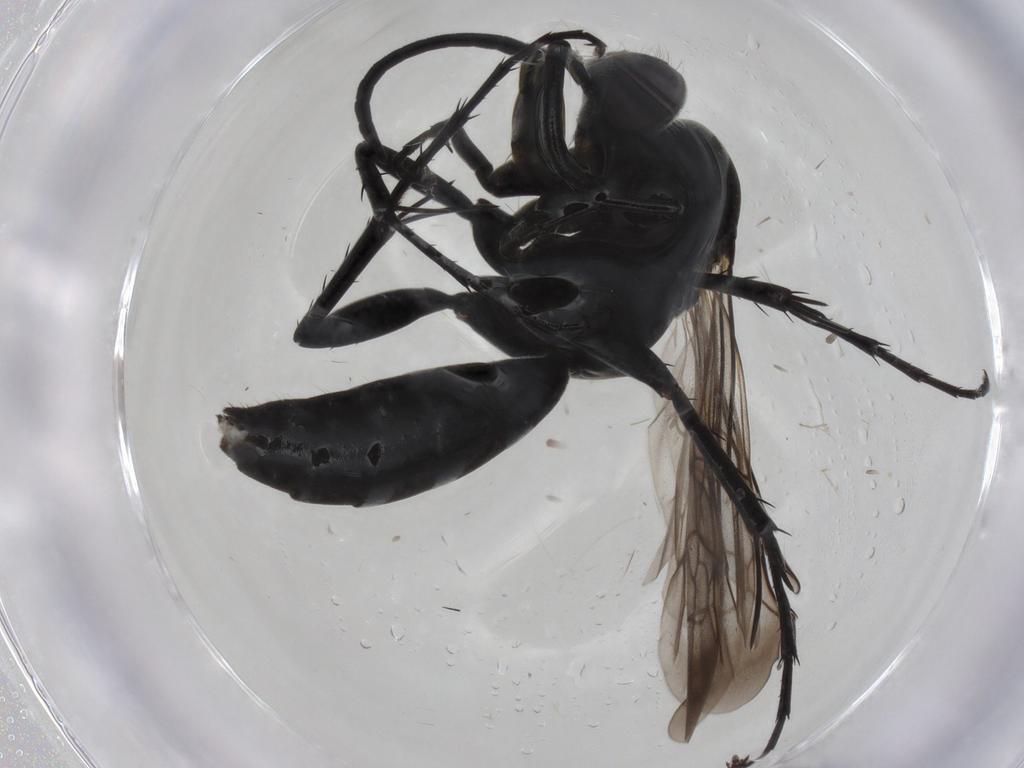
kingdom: Animalia
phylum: Arthropoda
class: Insecta
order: Hymenoptera
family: Pompilidae
